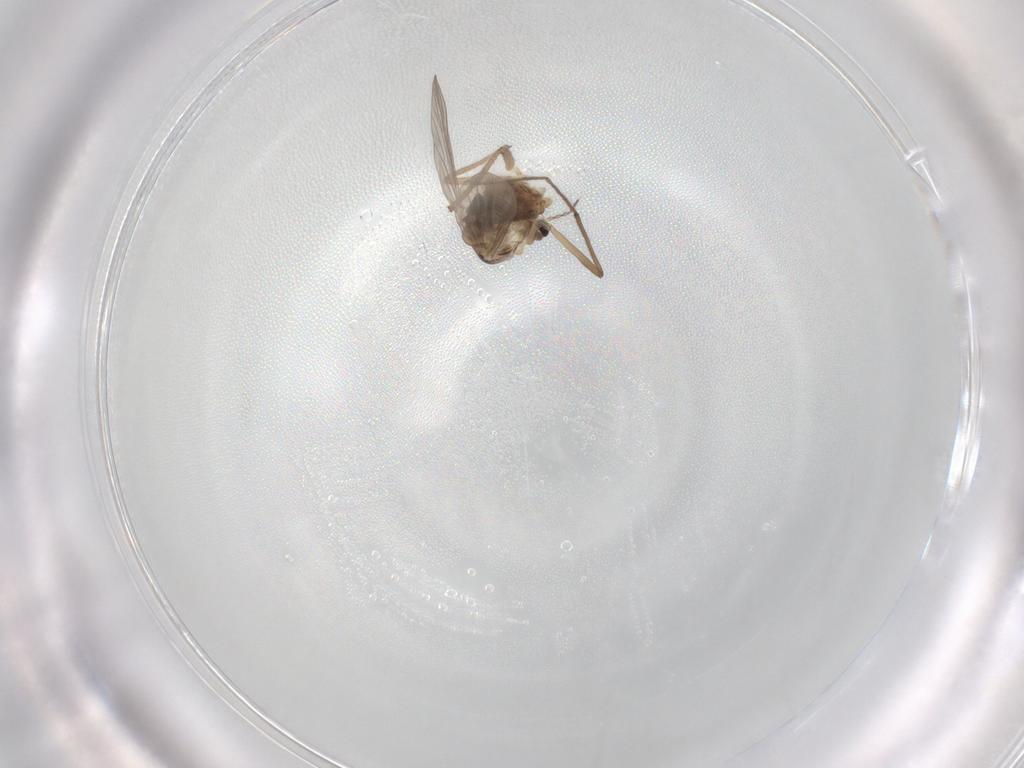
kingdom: Animalia
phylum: Arthropoda
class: Insecta
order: Diptera
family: Chironomidae
